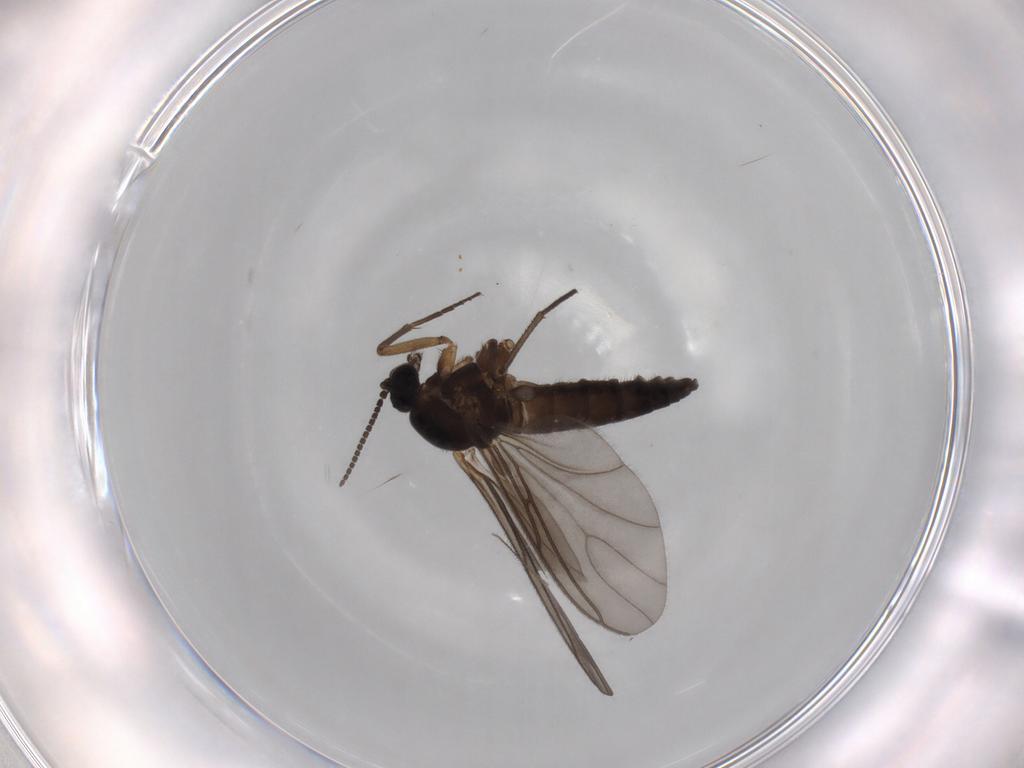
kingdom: Animalia
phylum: Arthropoda
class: Insecta
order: Diptera
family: Sciaridae
